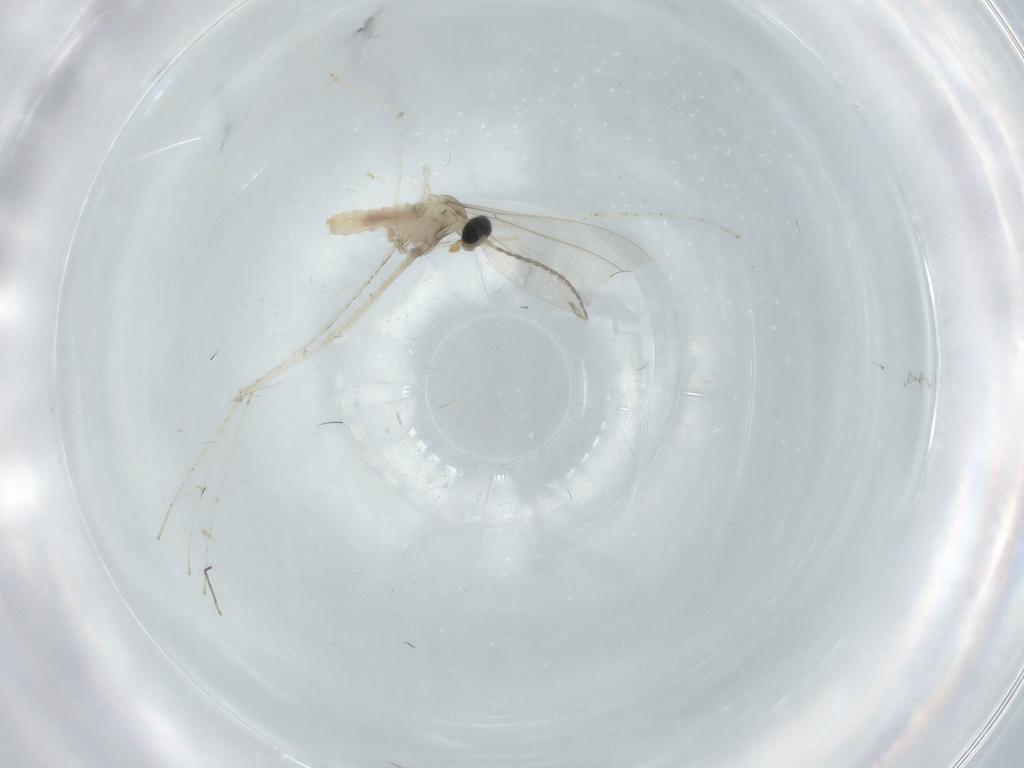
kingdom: Animalia
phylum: Arthropoda
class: Insecta
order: Diptera
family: Cecidomyiidae
